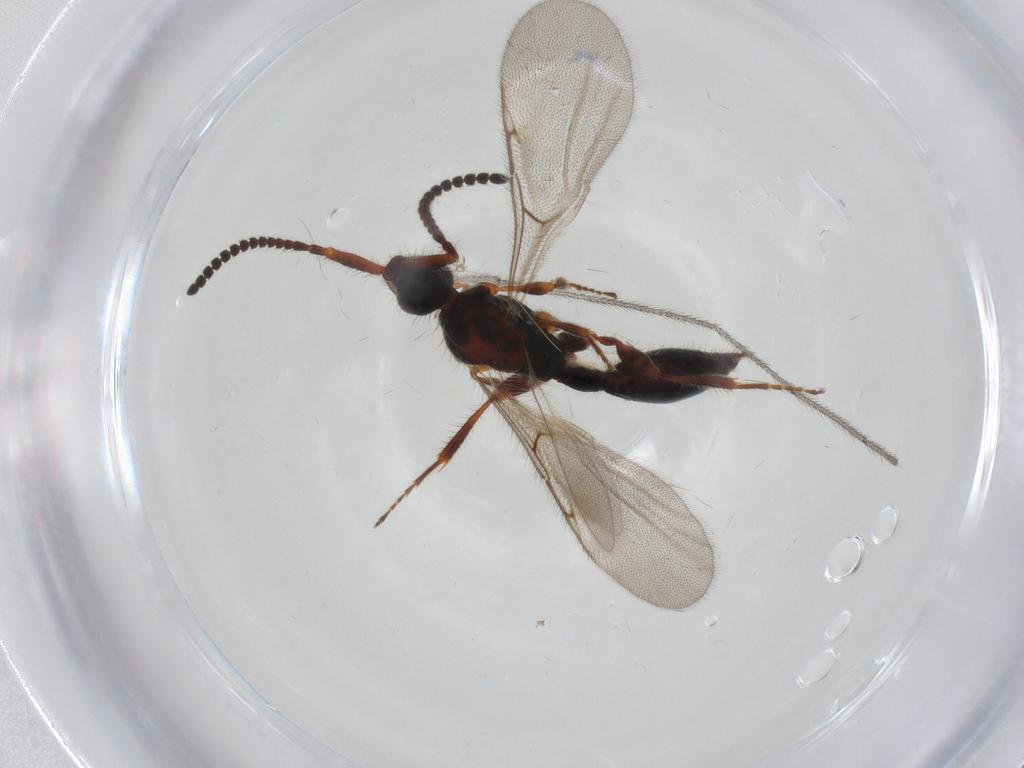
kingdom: Animalia
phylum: Arthropoda
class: Insecta
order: Hymenoptera
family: Diapriidae
